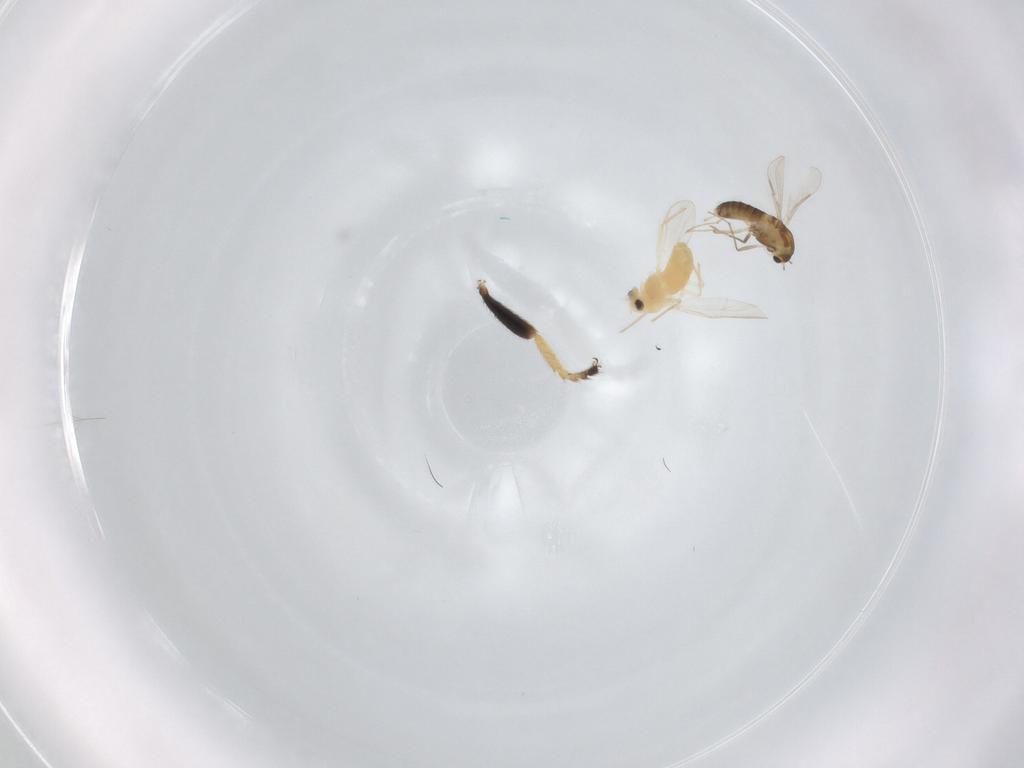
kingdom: Animalia
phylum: Arthropoda
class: Insecta
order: Diptera
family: Chironomidae
